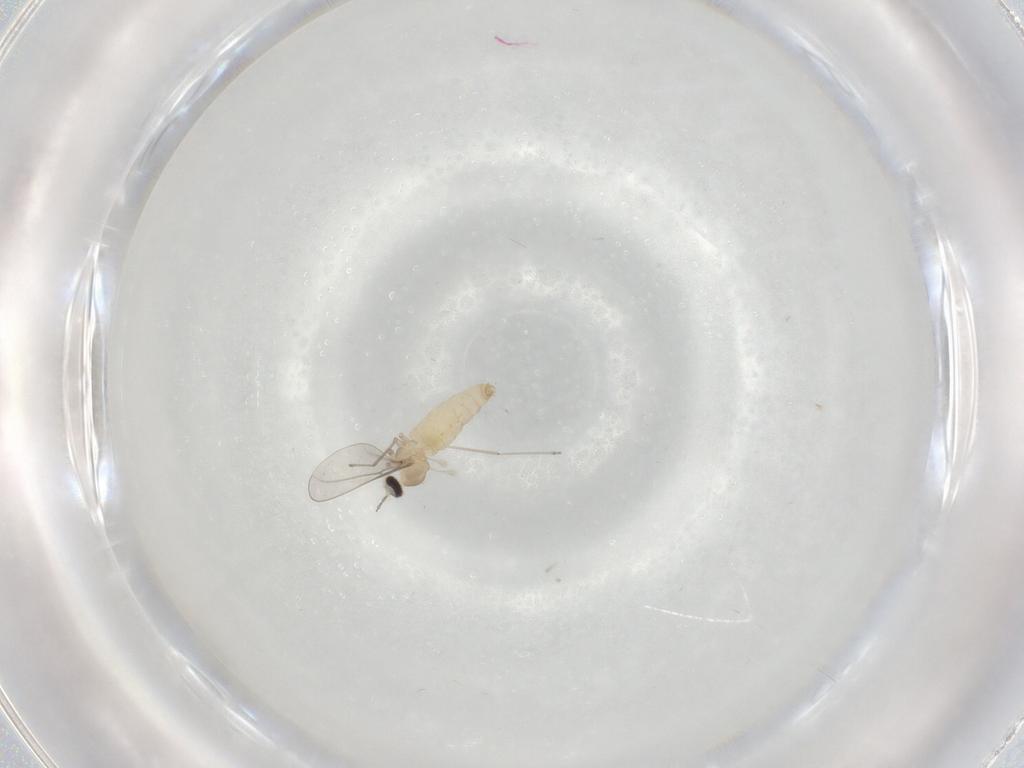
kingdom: Animalia
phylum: Arthropoda
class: Insecta
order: Diptera
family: Cecidomyiidae
